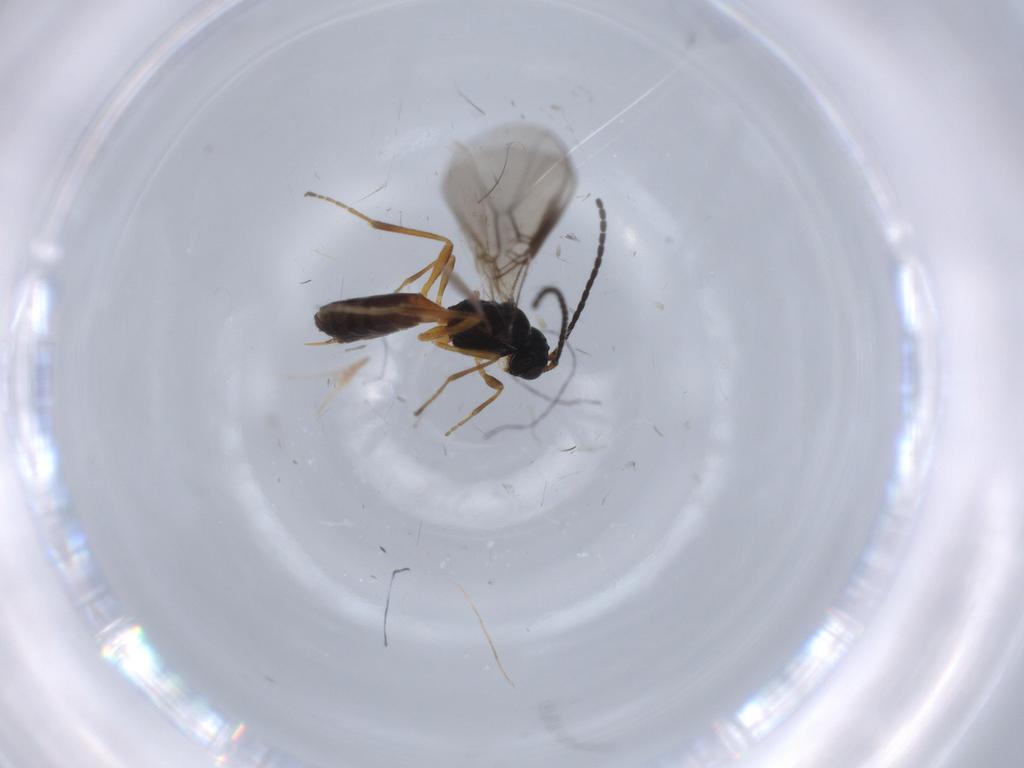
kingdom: Animalia
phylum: Arthropoda
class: Insecta
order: Hymenoptera
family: Braconidae
